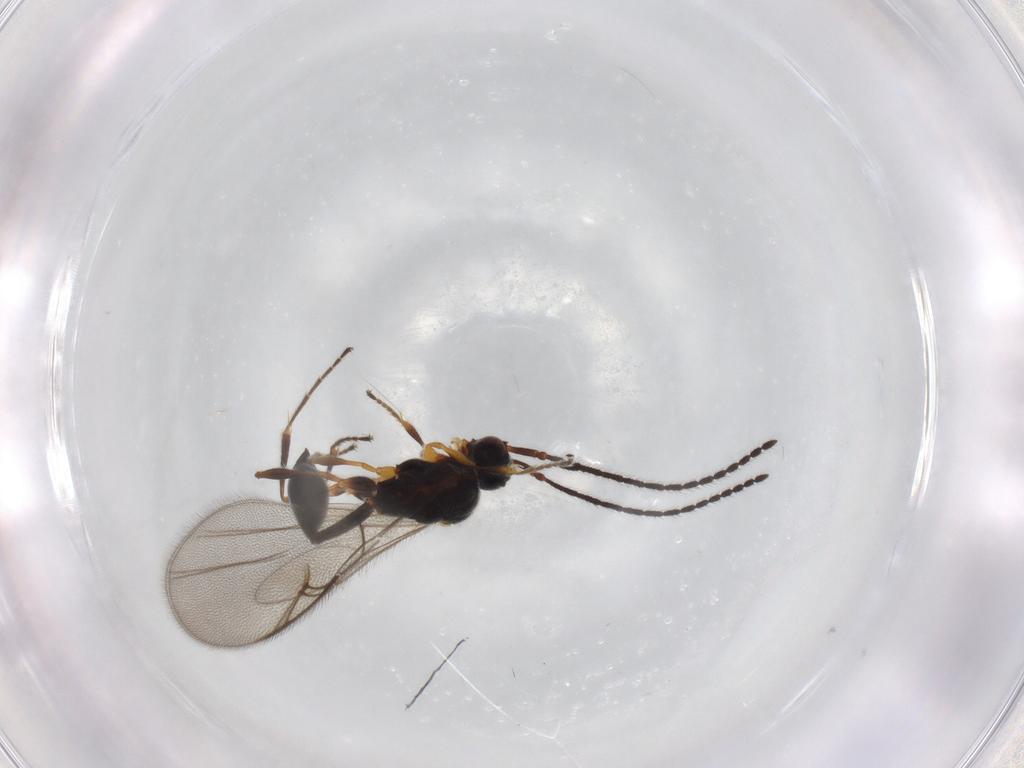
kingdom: Animalia
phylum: Arthropoda
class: Insecta
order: Hymenoptera
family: Diapriidae
